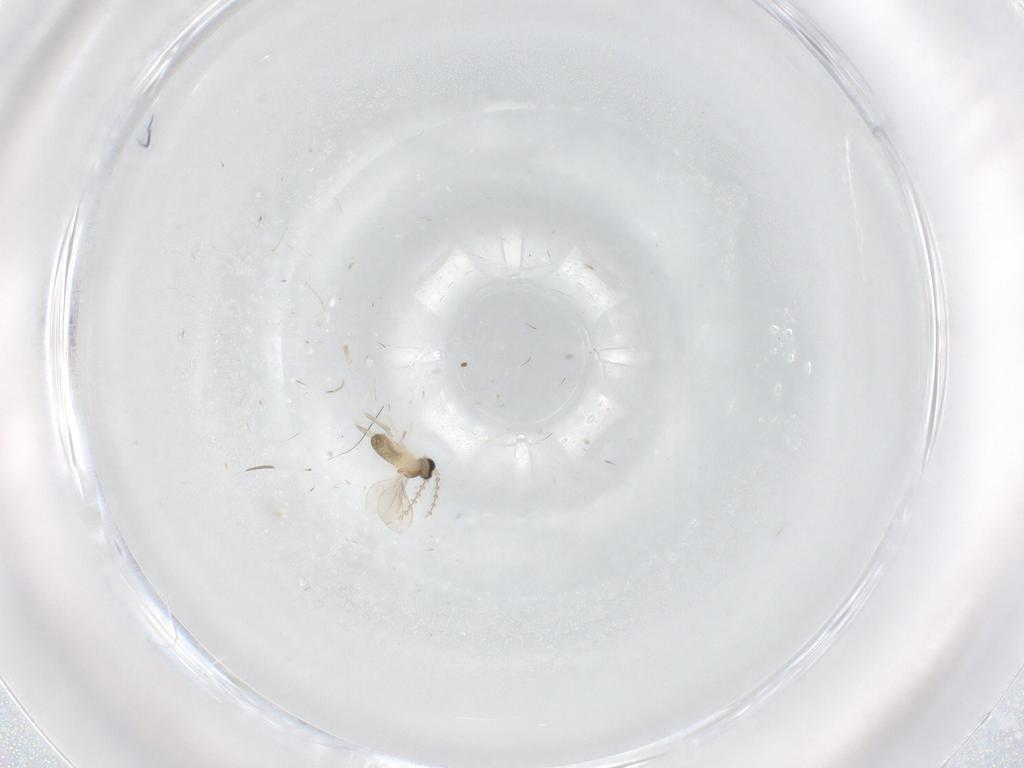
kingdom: Animalia
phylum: Arthropoda
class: Insecta
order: Diptera
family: Cecidomyiidae
